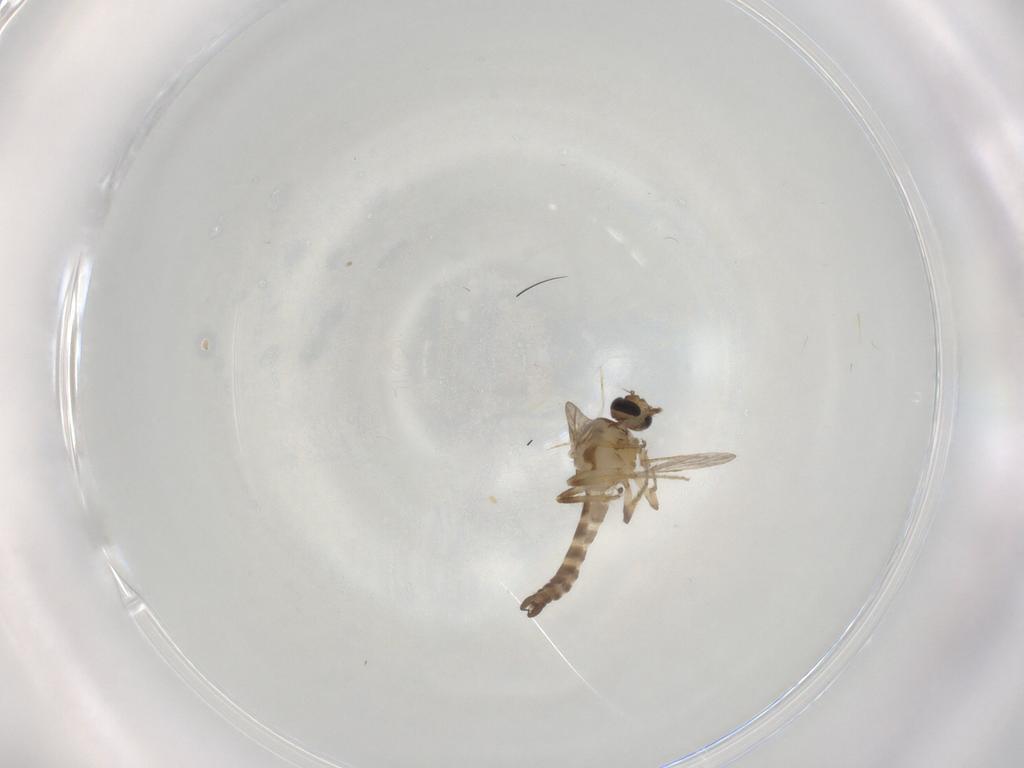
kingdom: Animalia
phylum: Arthropoda
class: Insecta
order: Diptera
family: Ceratopogonidae
